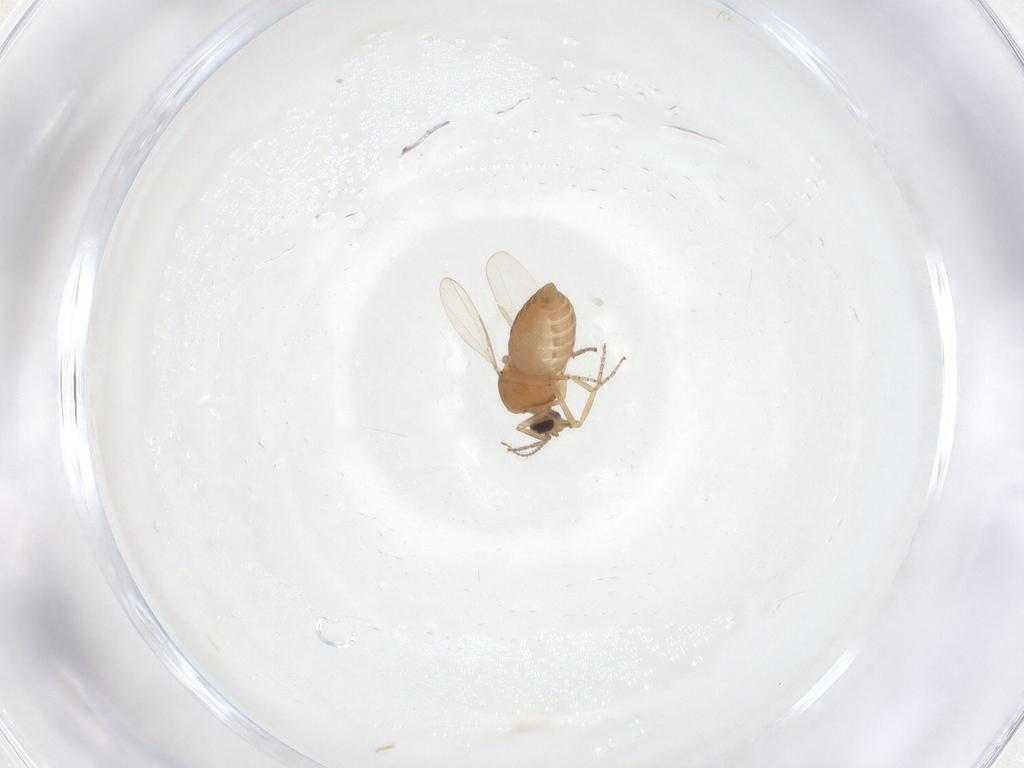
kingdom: Animalia
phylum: Arthropoda
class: Insecta
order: Diptera
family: Ceratopogonidae
